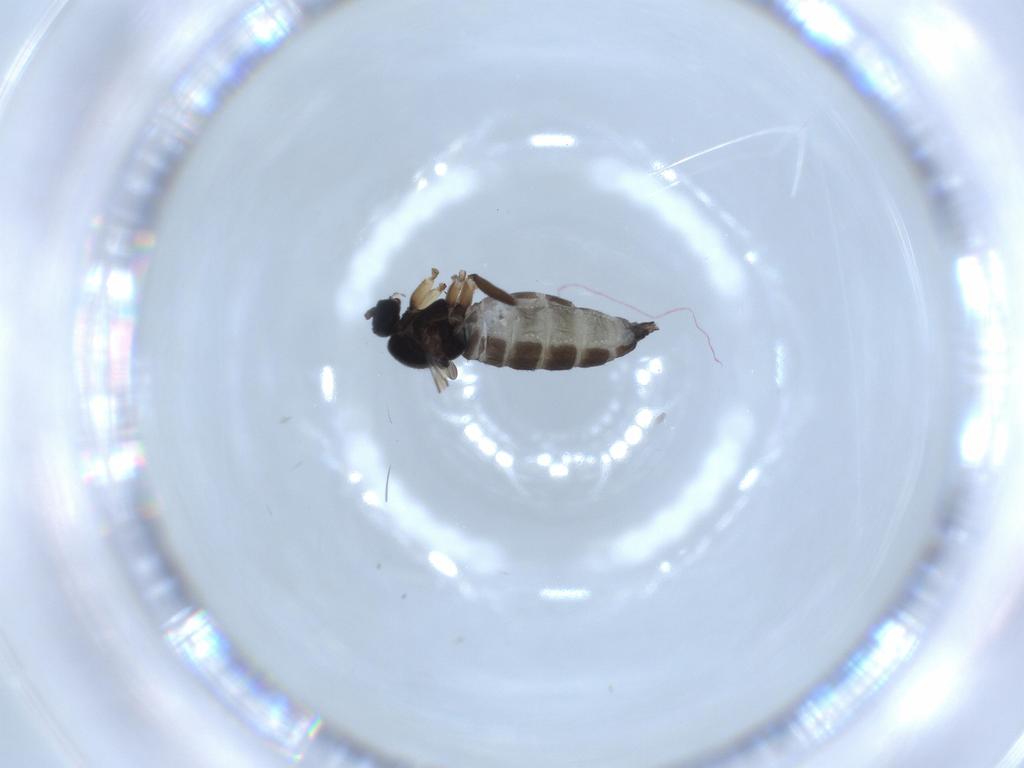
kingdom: Animalia
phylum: Arthropoda
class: Insecta
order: Diptera
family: Sciaridae
